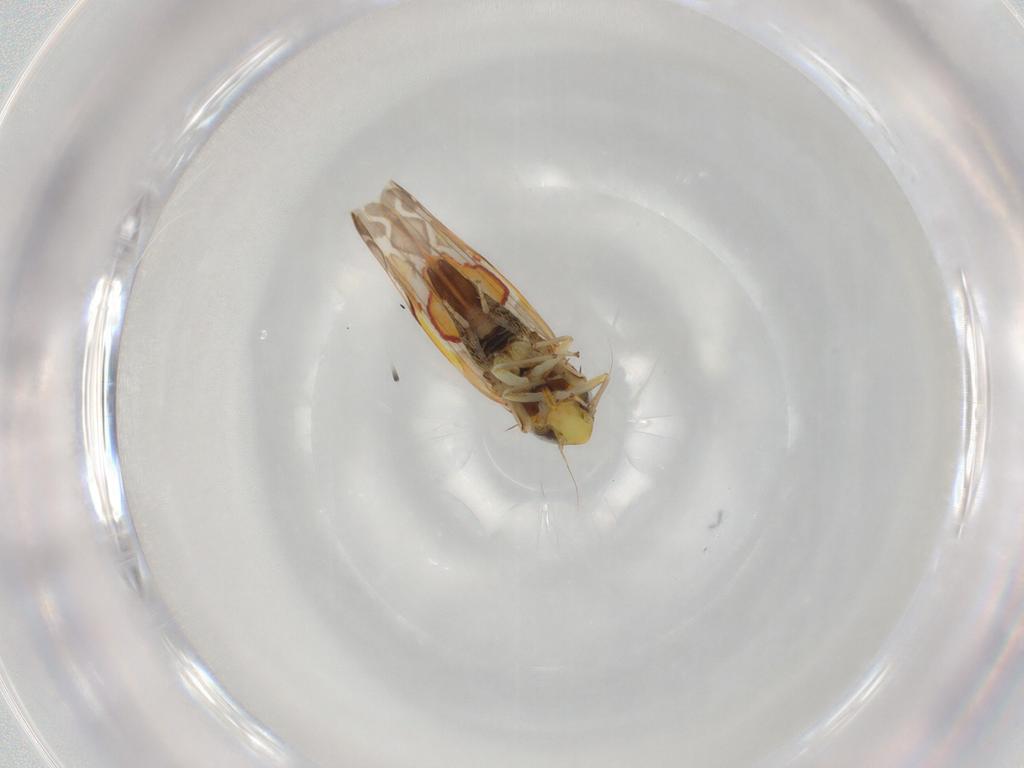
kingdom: Animalia
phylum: Arthropoda
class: Insecta
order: Hemiptera
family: Cicadellidae
